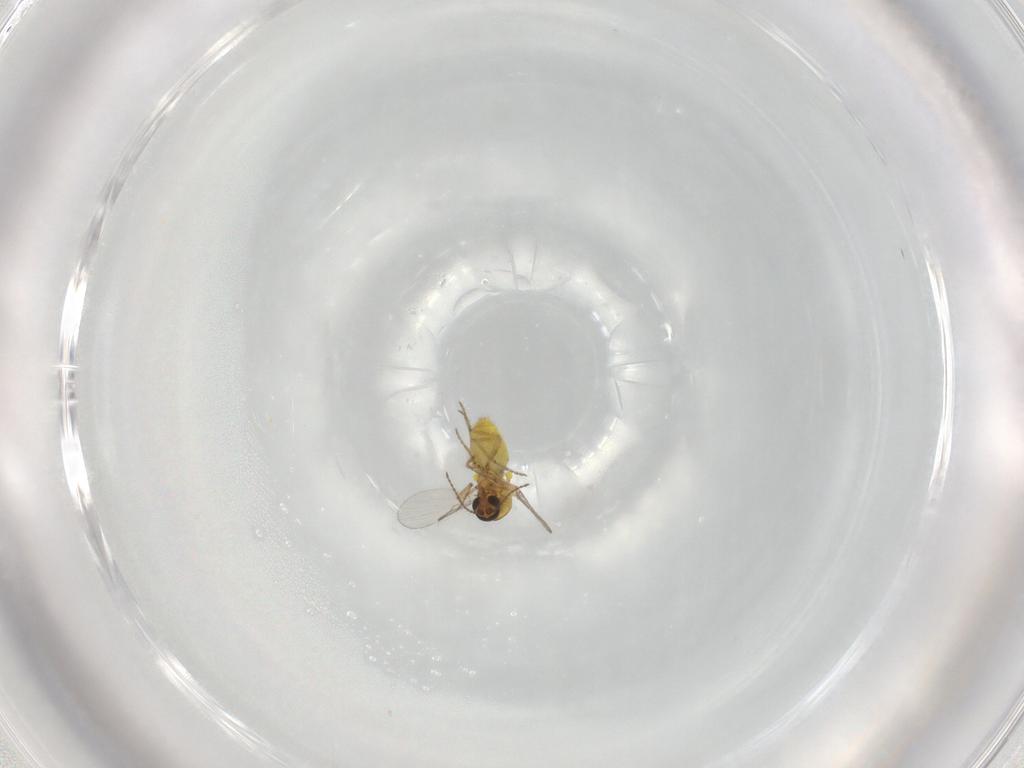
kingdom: Animalia
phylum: Arthropoda
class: Insecta
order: Diptera
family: Ceratopogonidae
